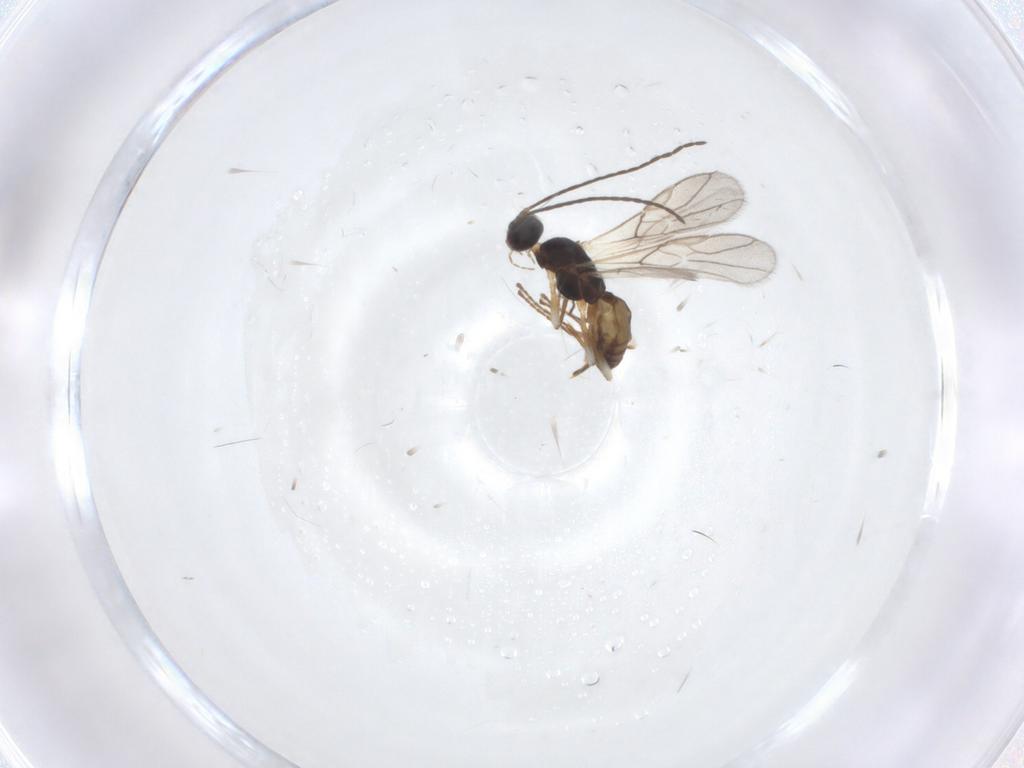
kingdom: Animalia
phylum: Arthropoda
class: Insecta
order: Hymenoptera
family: Braconidae
